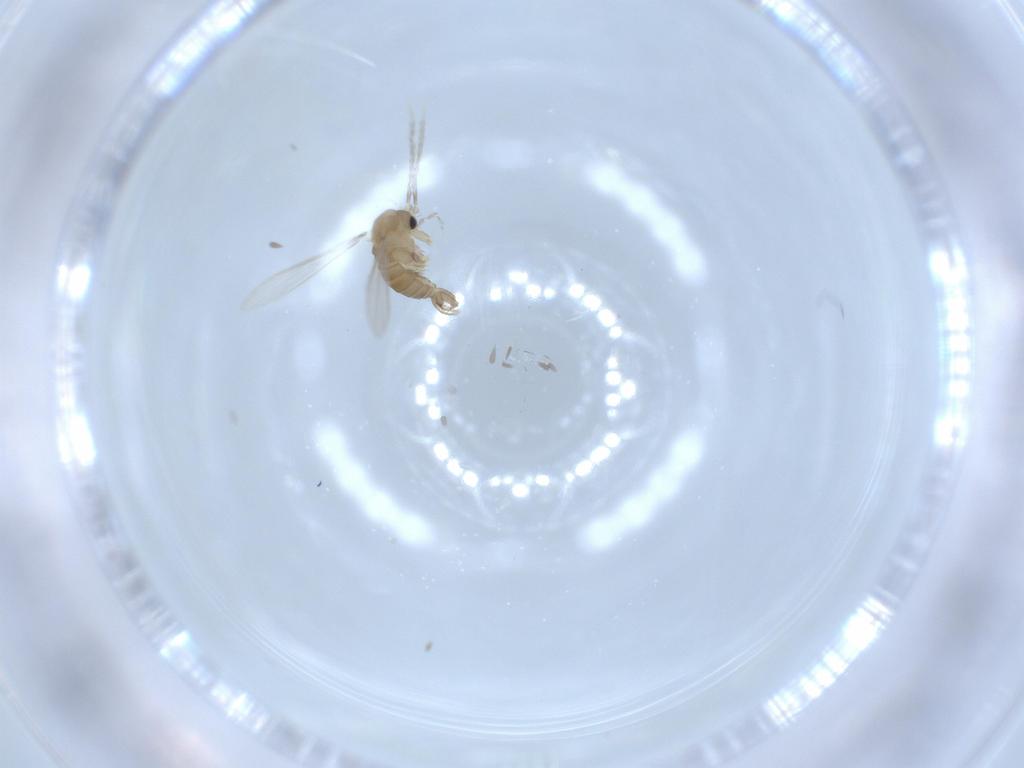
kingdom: Animalia
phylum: Arthropoda
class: Insecta
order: Diptera
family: Psychodidae
